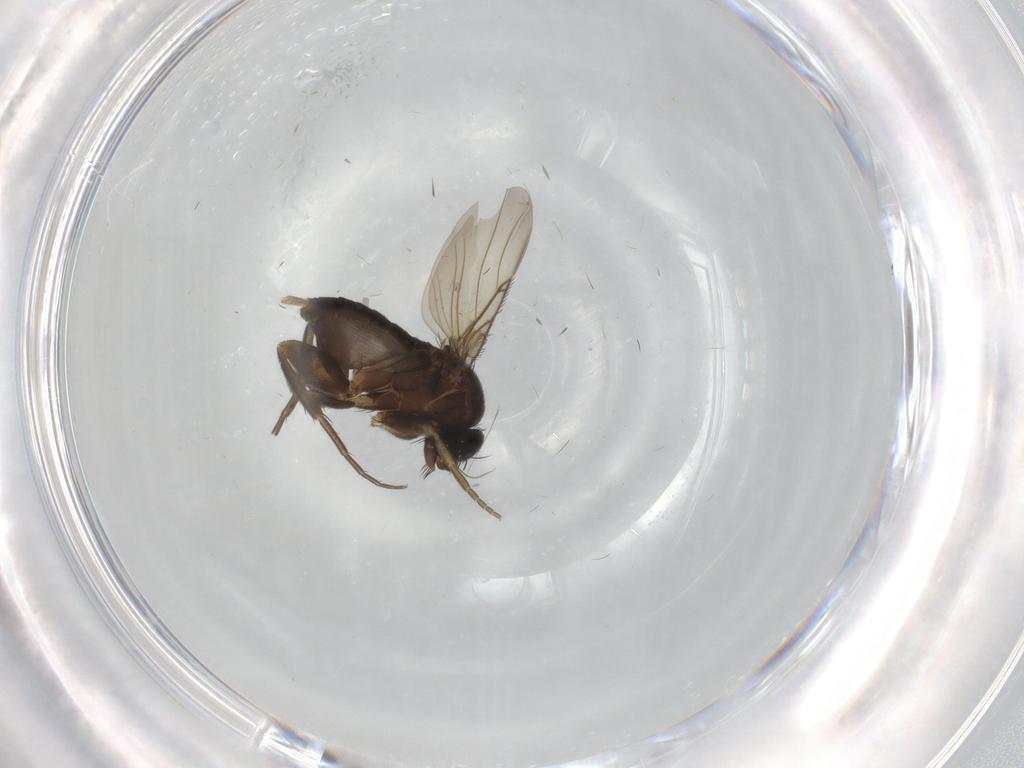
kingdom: Animalia
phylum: Arthropoda
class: Insecta
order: Diptera
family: Phoridae
